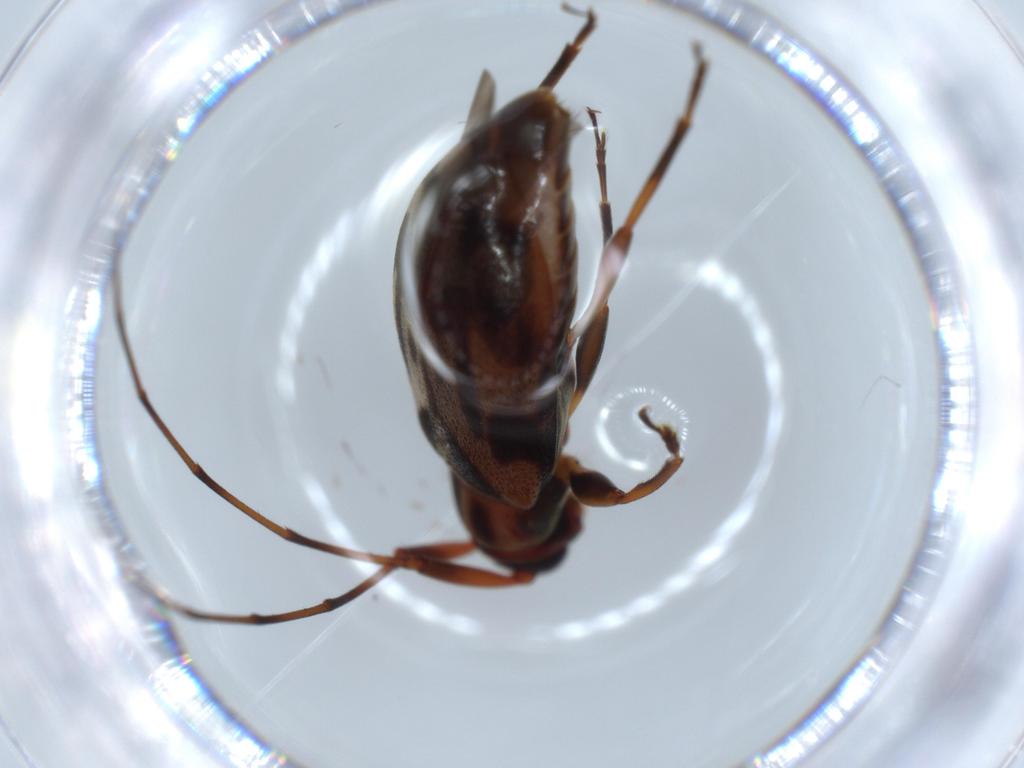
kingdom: Animalia
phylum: Arthropoda
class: Insecta
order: Coleoptera
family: Staphylinidae
